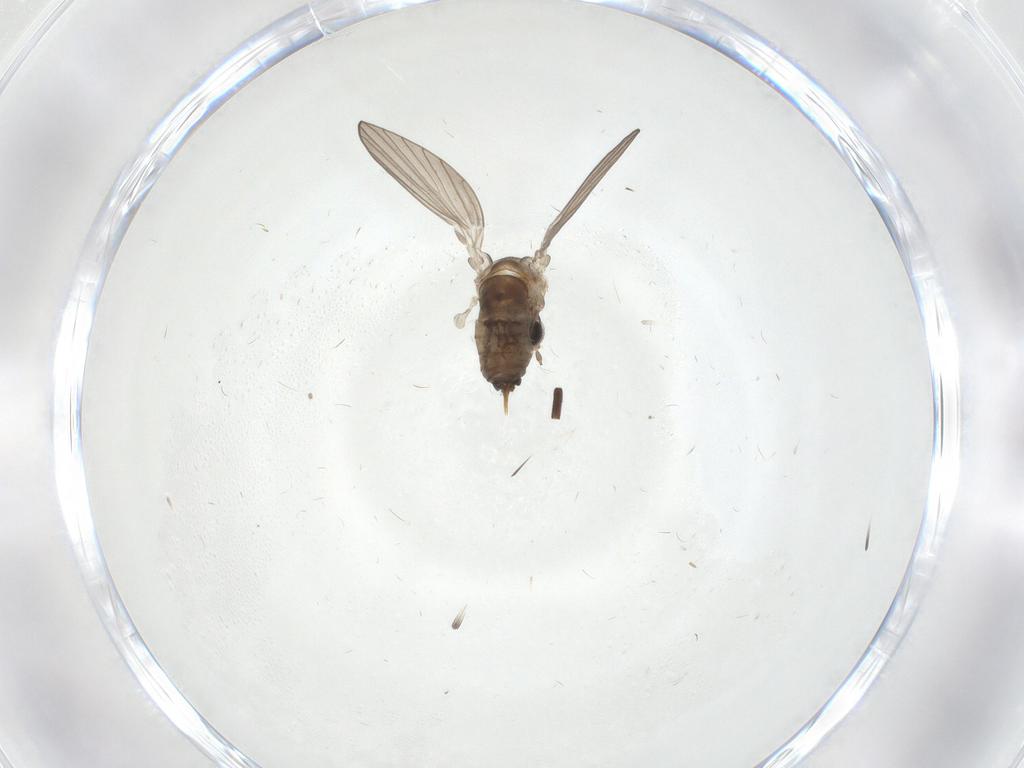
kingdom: Animalia
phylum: Arthropoda
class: Insecta
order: Diptera
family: Psychodidae
